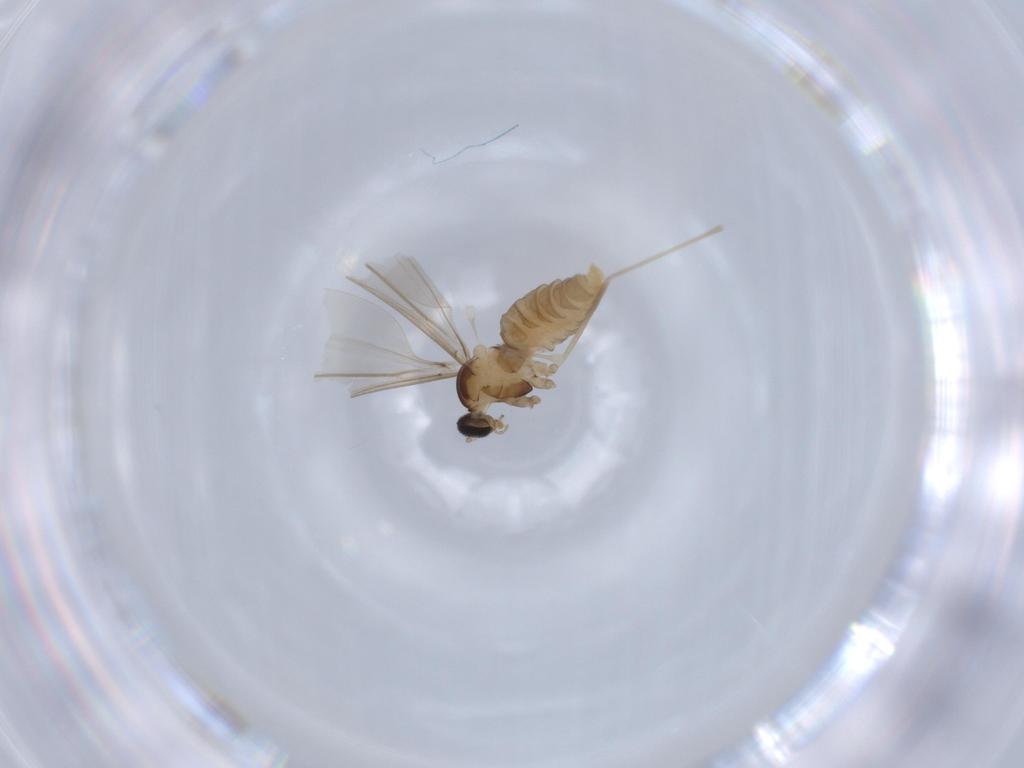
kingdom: Animalia
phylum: Arthropoda
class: Insecta
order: Diptera
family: Cecidomyiidae
